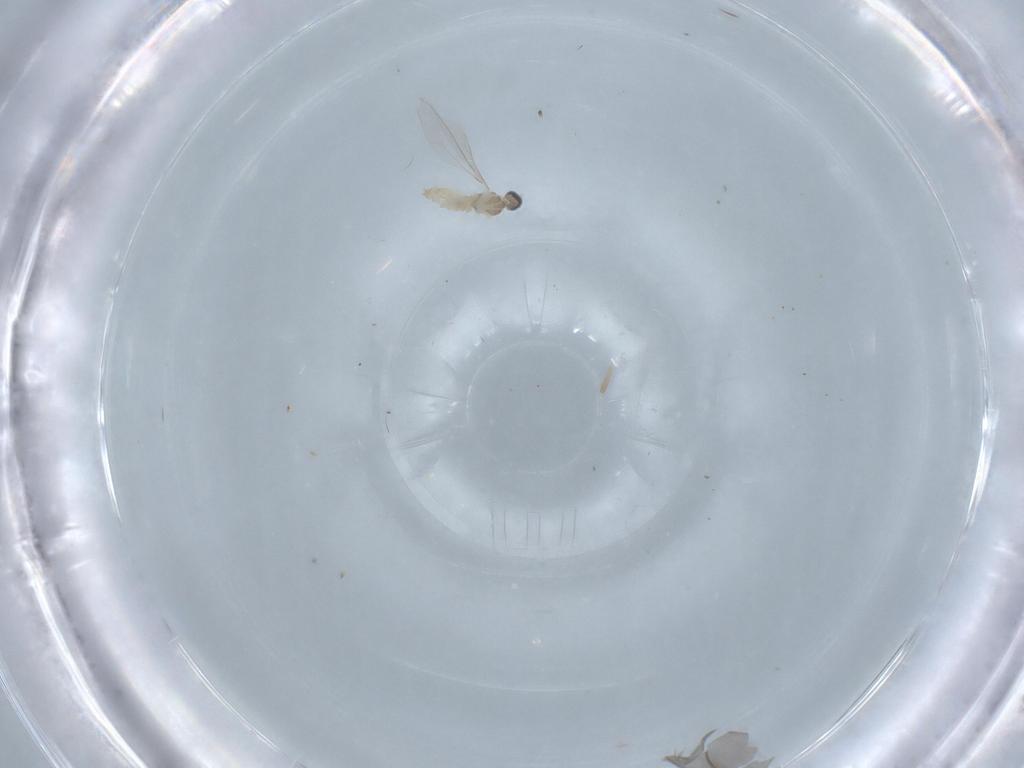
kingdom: Animalia
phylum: Arthropoda
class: Insecta
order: Diptera
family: Cecidomyiidae
